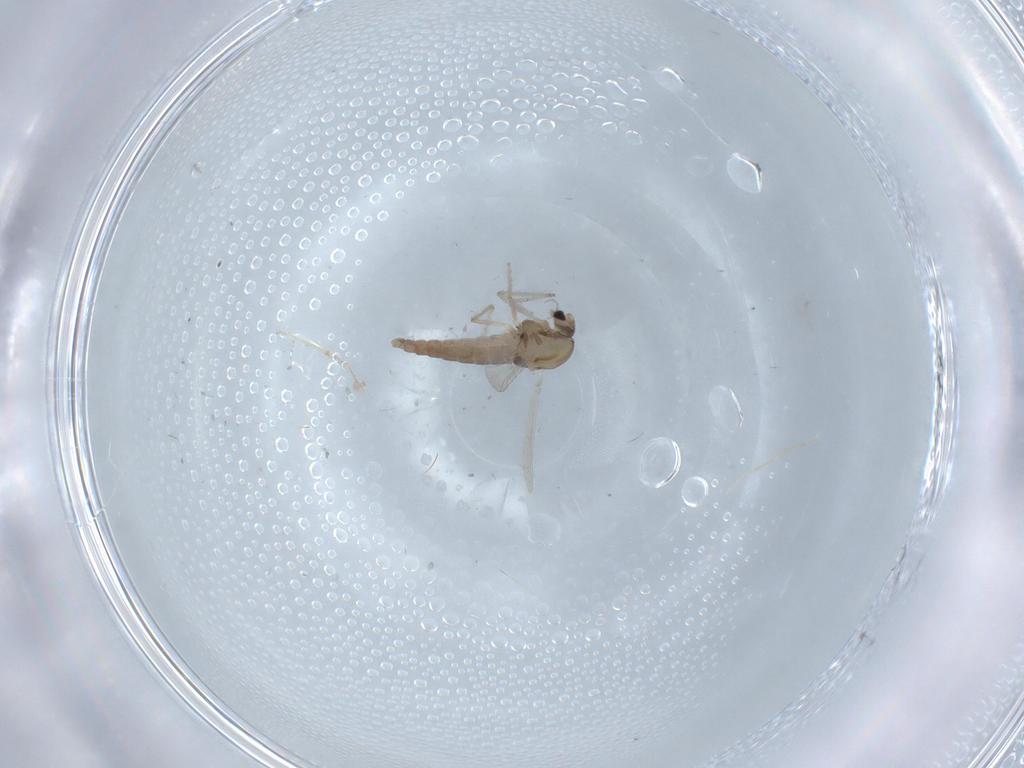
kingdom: Animalia
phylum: Arthropoda
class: Insecta
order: Diptera
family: Chironomidae
